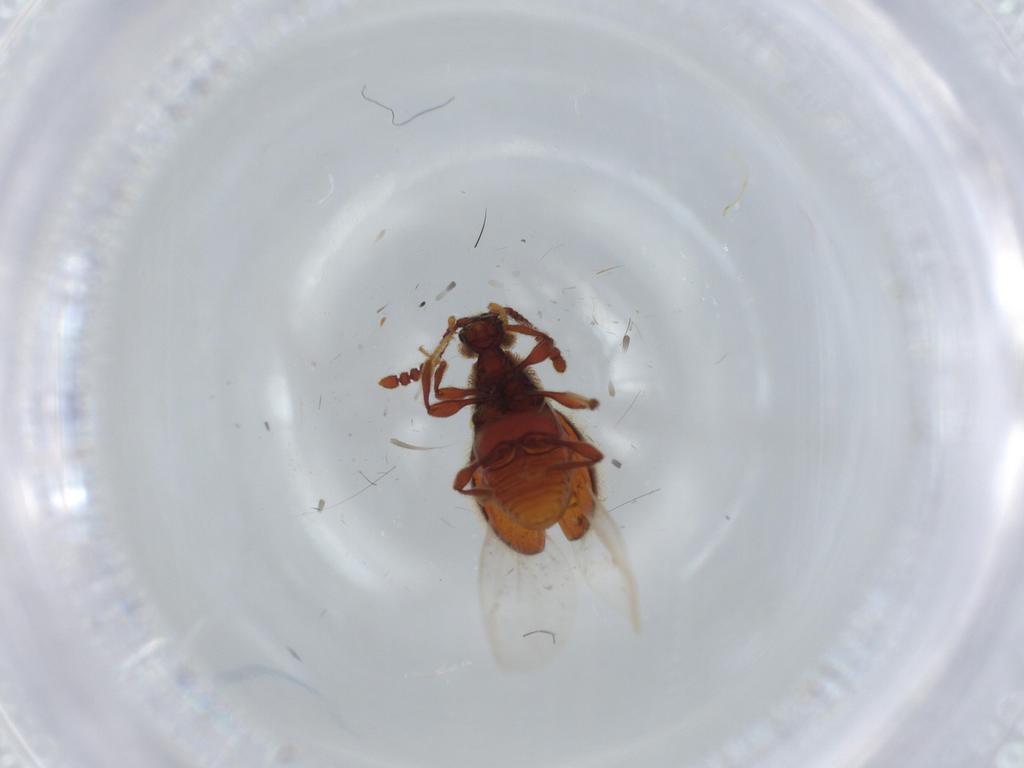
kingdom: Animalia
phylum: Arthropoda
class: Insecta
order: Coleoptera
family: Staphylinidae
